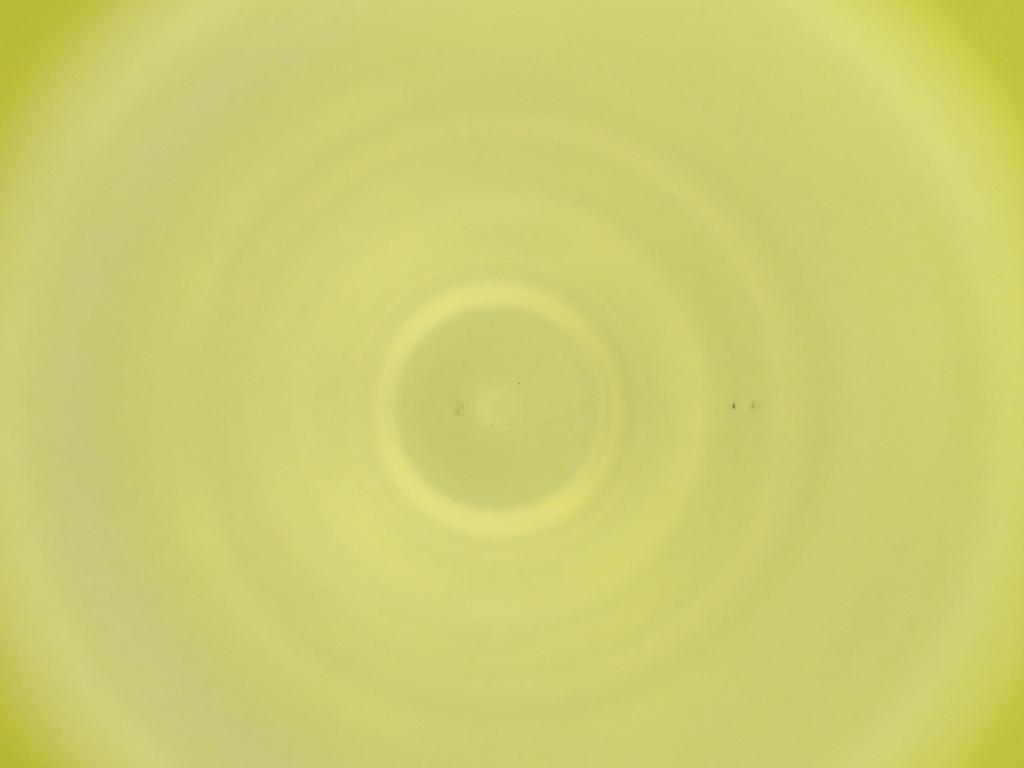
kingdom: Animalia
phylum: Arthropoda
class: Insecta
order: Diptera
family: Cecidomyiidae
